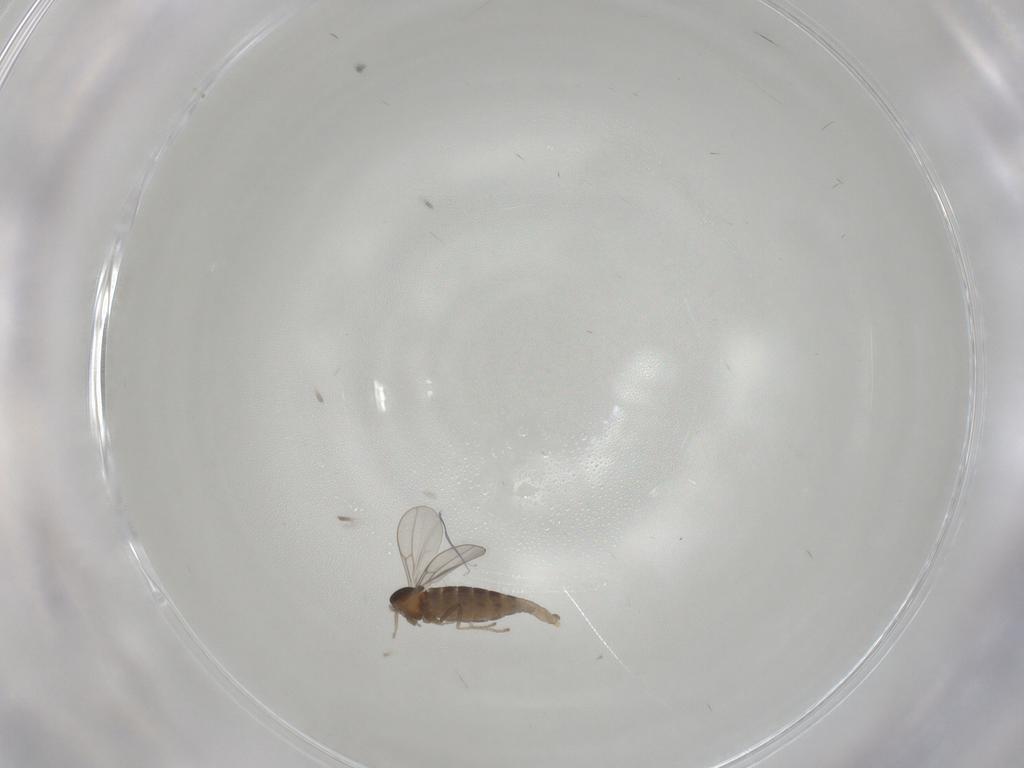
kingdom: Animalia
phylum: Arthropoda
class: Insecta
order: Diptera
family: Cecidomyiidae
